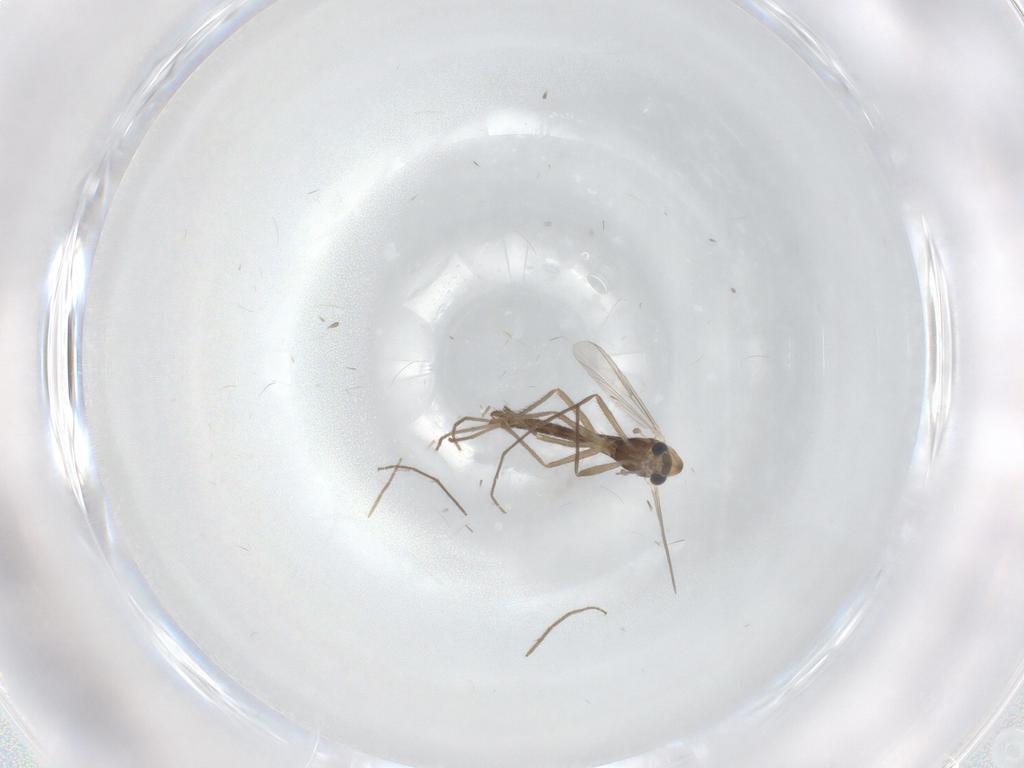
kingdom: Animalia
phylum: Arthropoda
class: Insecta
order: Diptera
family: Chironomidae
